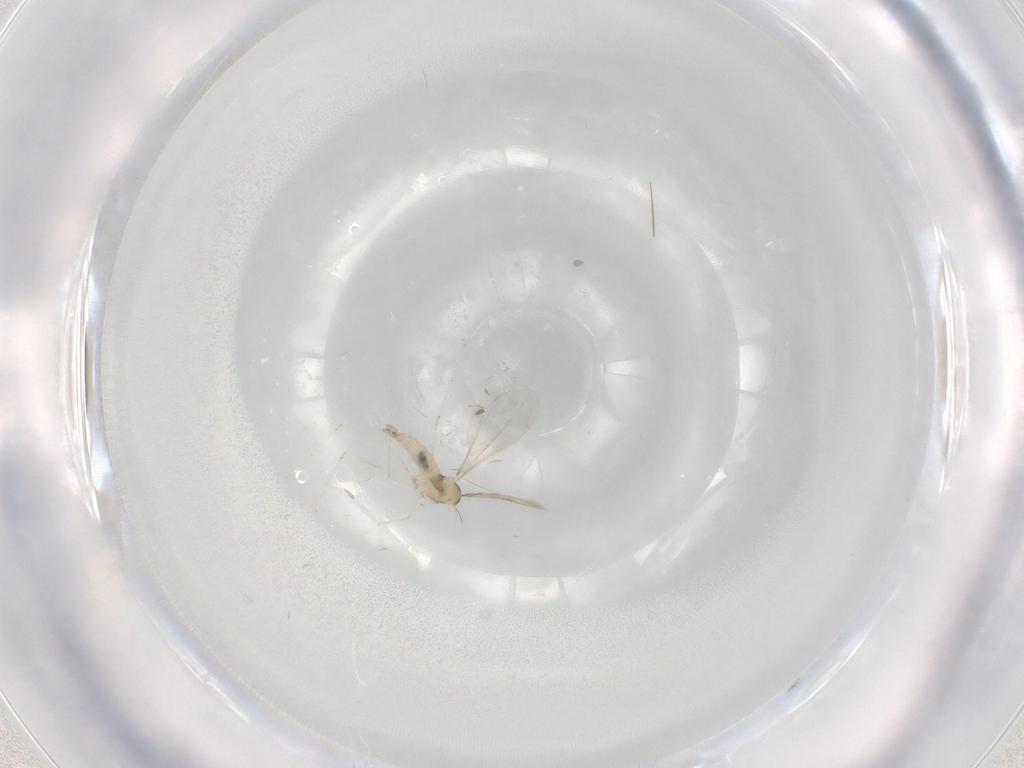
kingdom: Animalia
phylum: Arthropoda
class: Insecta
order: Diptera
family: Cecidomyiidae
